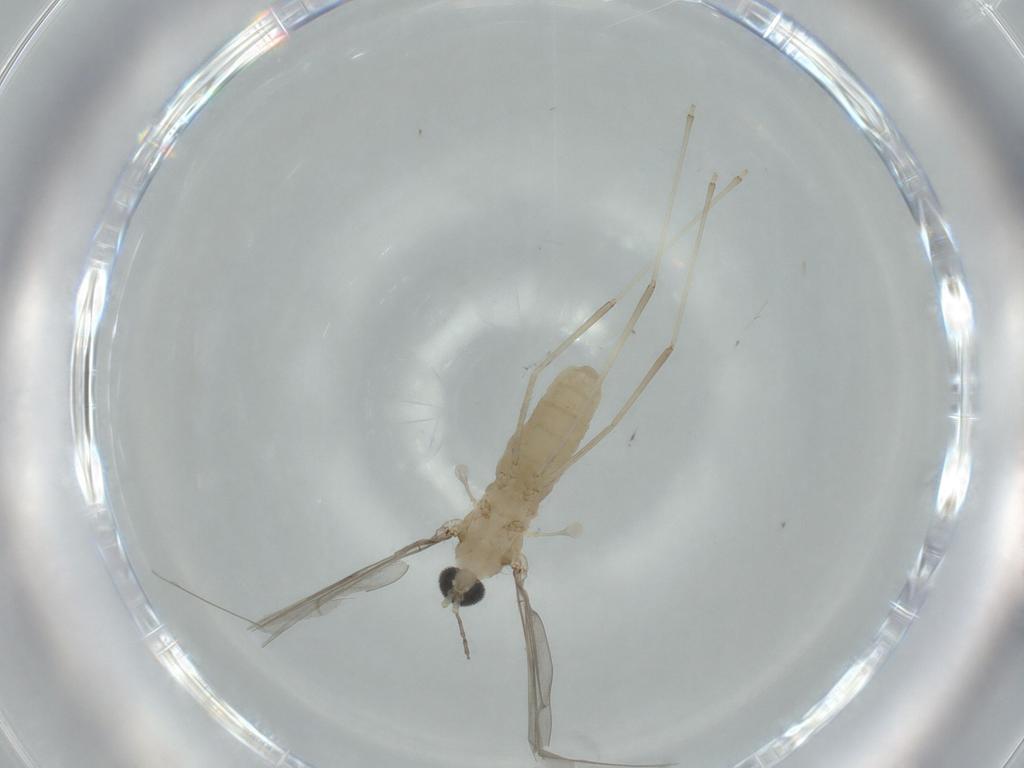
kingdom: Animalia
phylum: Arthropoda
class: Insecta
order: Diptera
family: Cecidomyiidae
